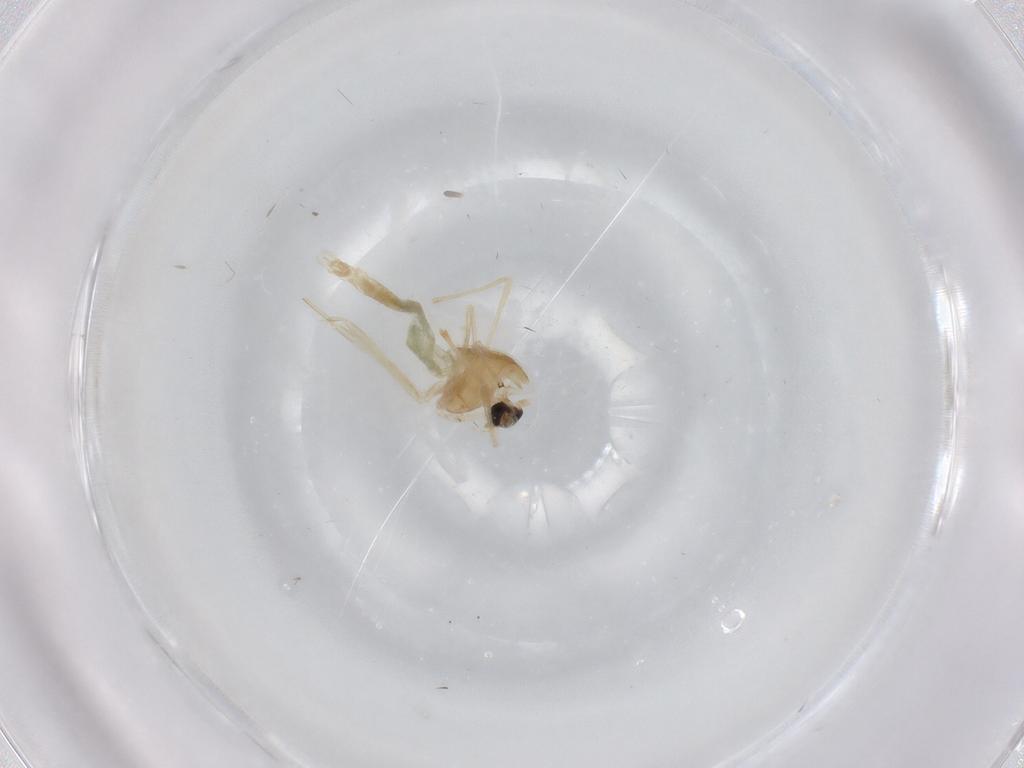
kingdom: Animalia
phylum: Arthropoda
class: Insecta
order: Diptera
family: Chironomidae
